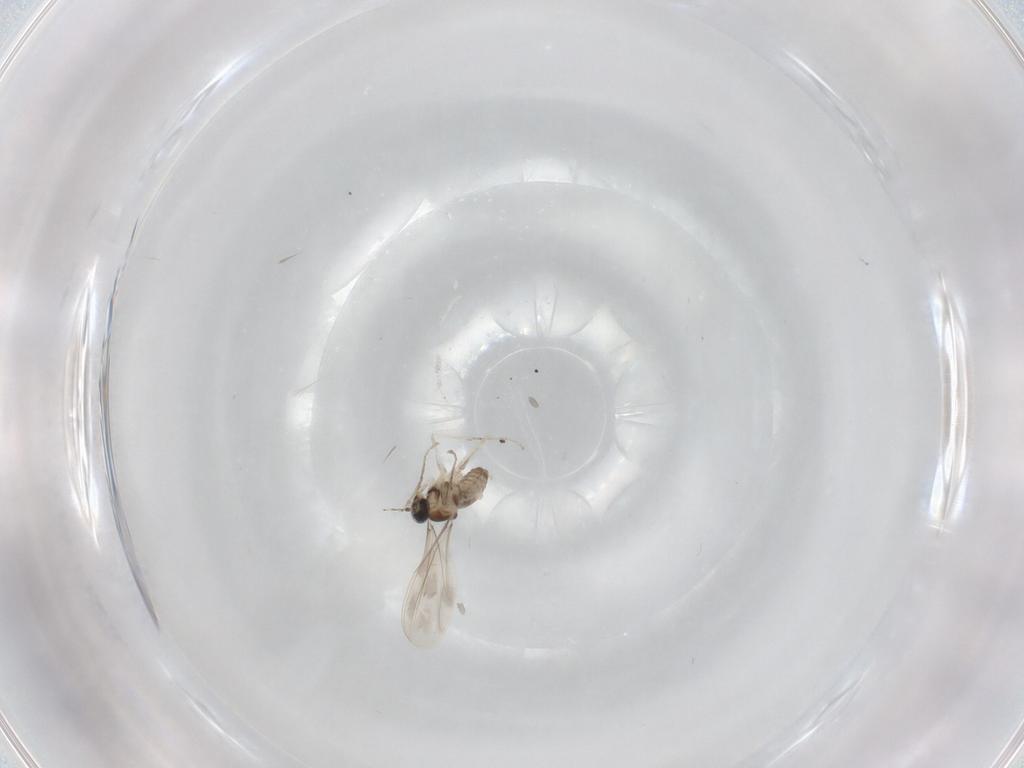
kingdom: Animalia
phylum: Arthropoda
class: Insecta
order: Diptera
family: Cecidomyiidae
